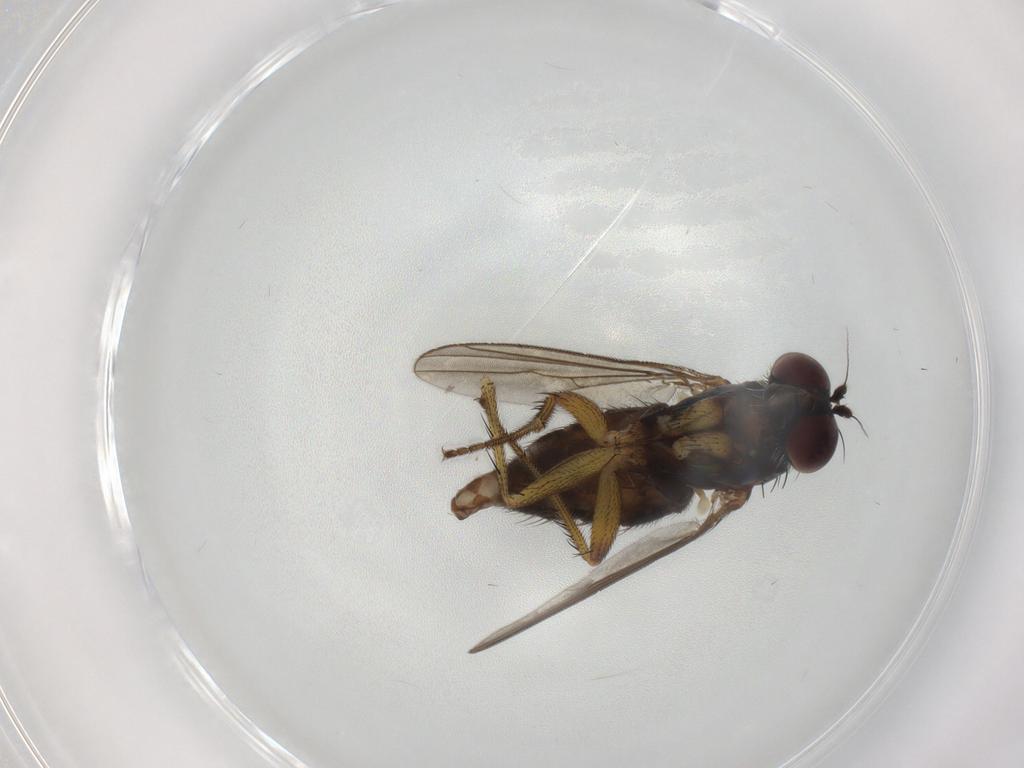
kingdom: Animalia
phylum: Arthropoda
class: Insecta
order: Diptera
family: Dolichopodidae
